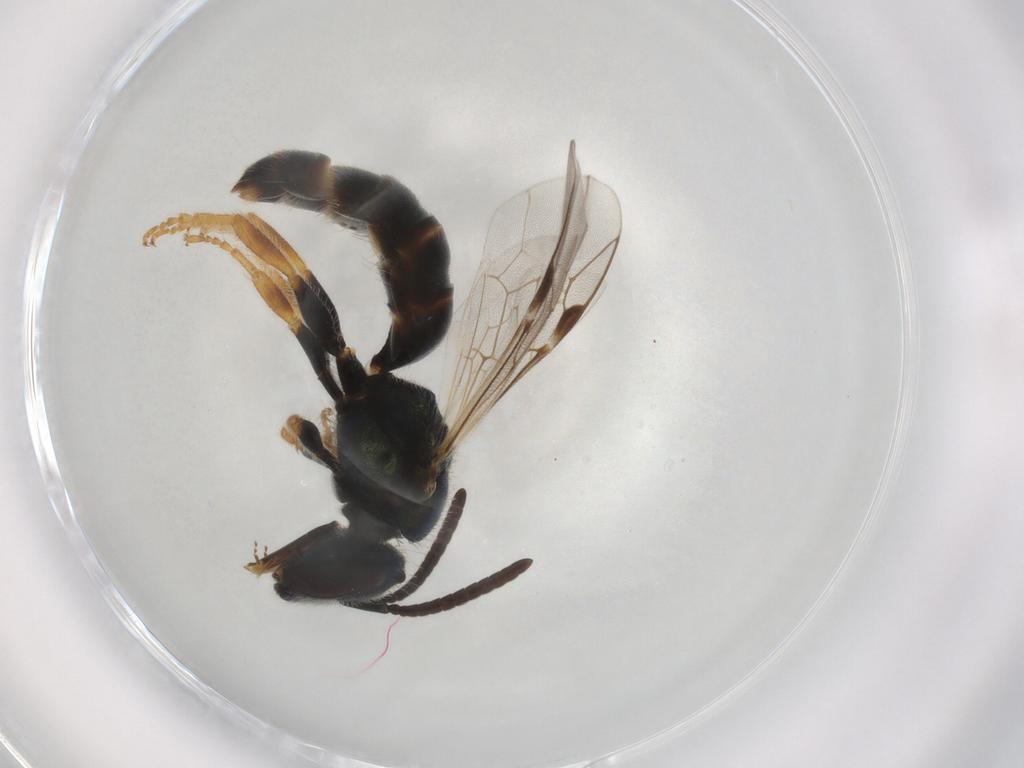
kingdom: Animalia
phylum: Arthropoda
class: Insecta
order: Hymenoptera
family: Halictidae
